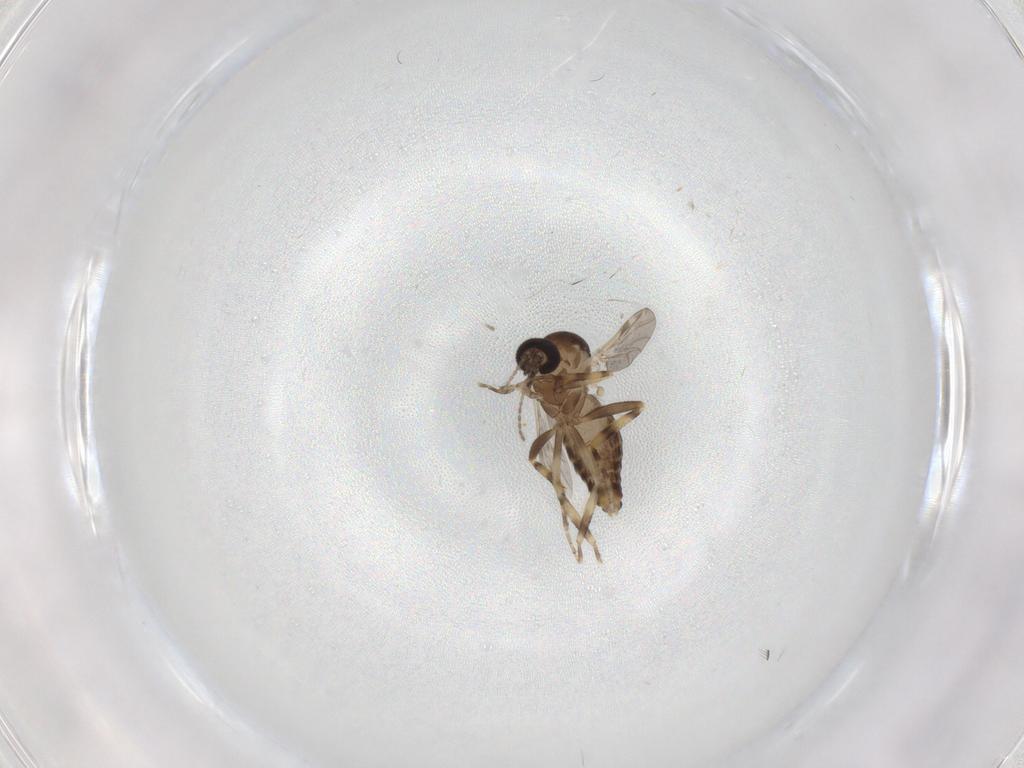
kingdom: Animalia
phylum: Arthropoda
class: Insecta
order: Diptera
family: Ceratopogonidae
